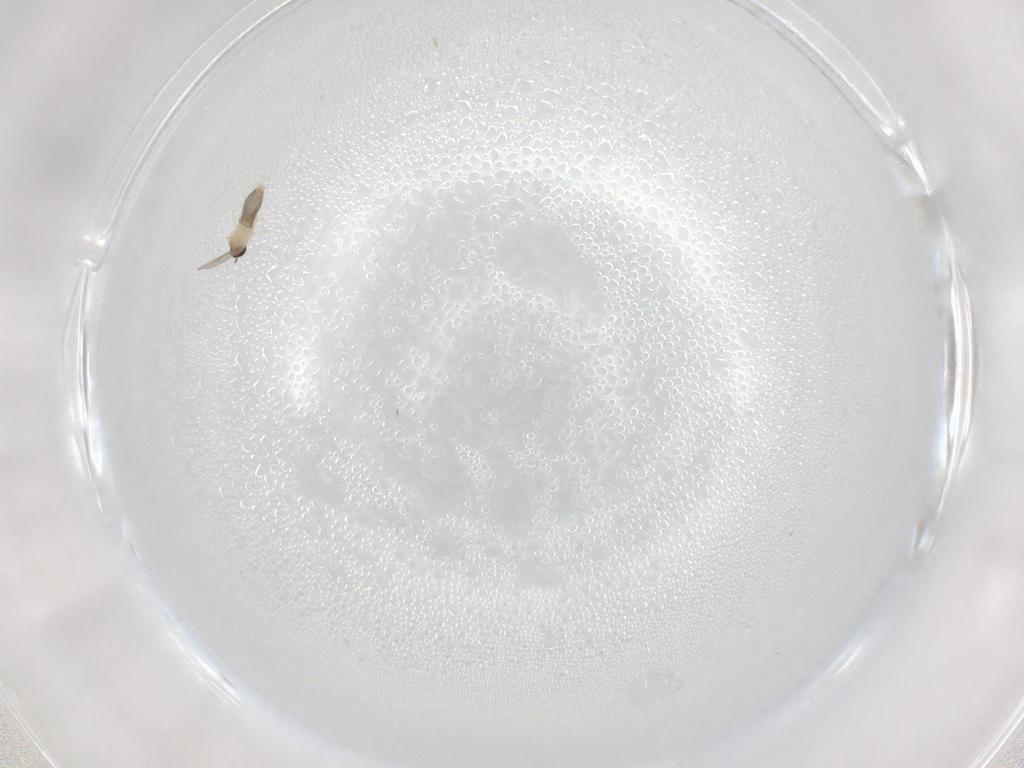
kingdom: Animalia
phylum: Arthropoda
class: Insecta
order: Diptera
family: Cecidomyiidae
